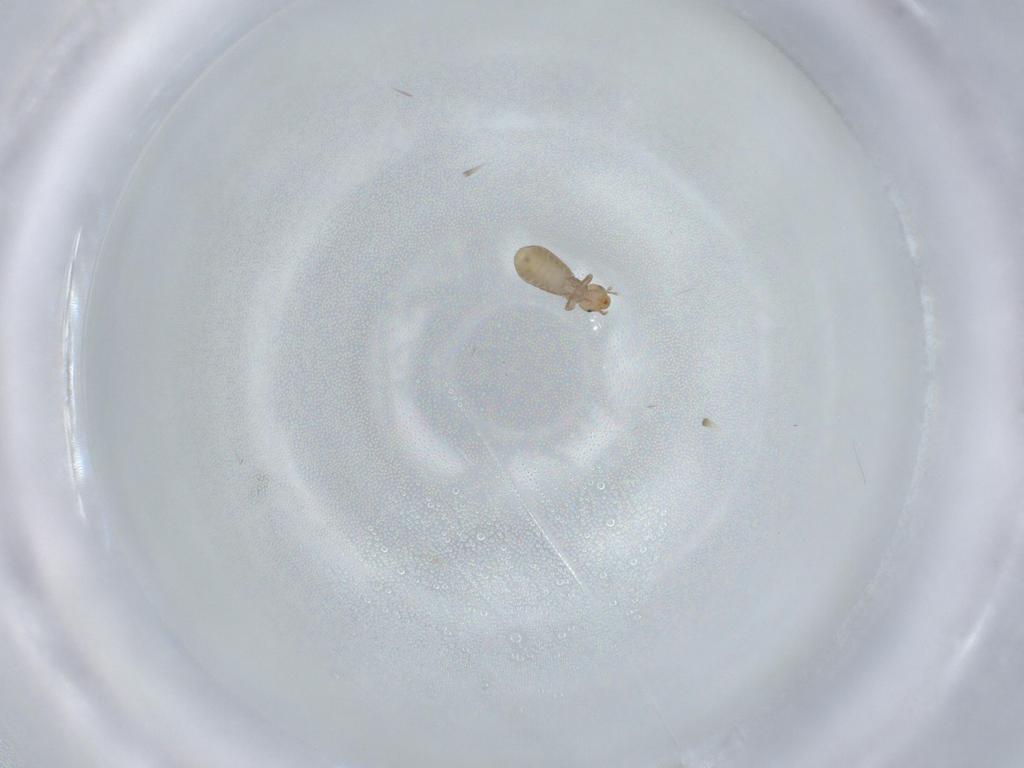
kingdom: Animalia
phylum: Arthropoda
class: Insecta
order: Psocodea
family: Liposcelididae
